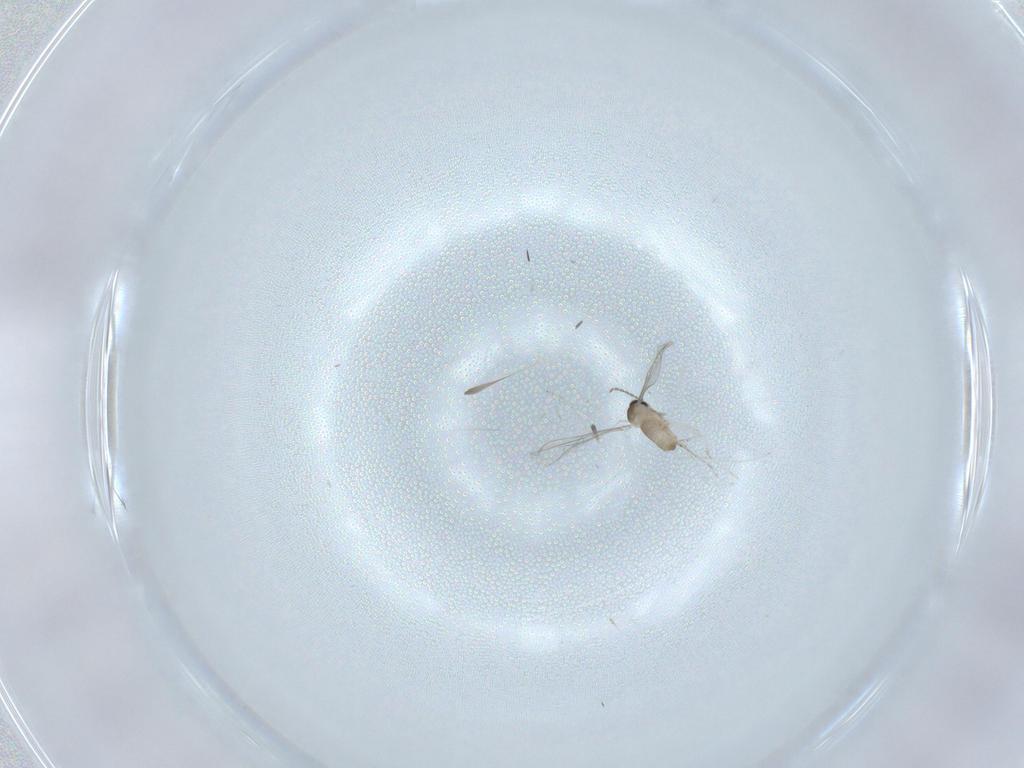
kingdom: Animalia
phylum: Arthropoda
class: Insecta
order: Diptera
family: Cecidomyiidae
